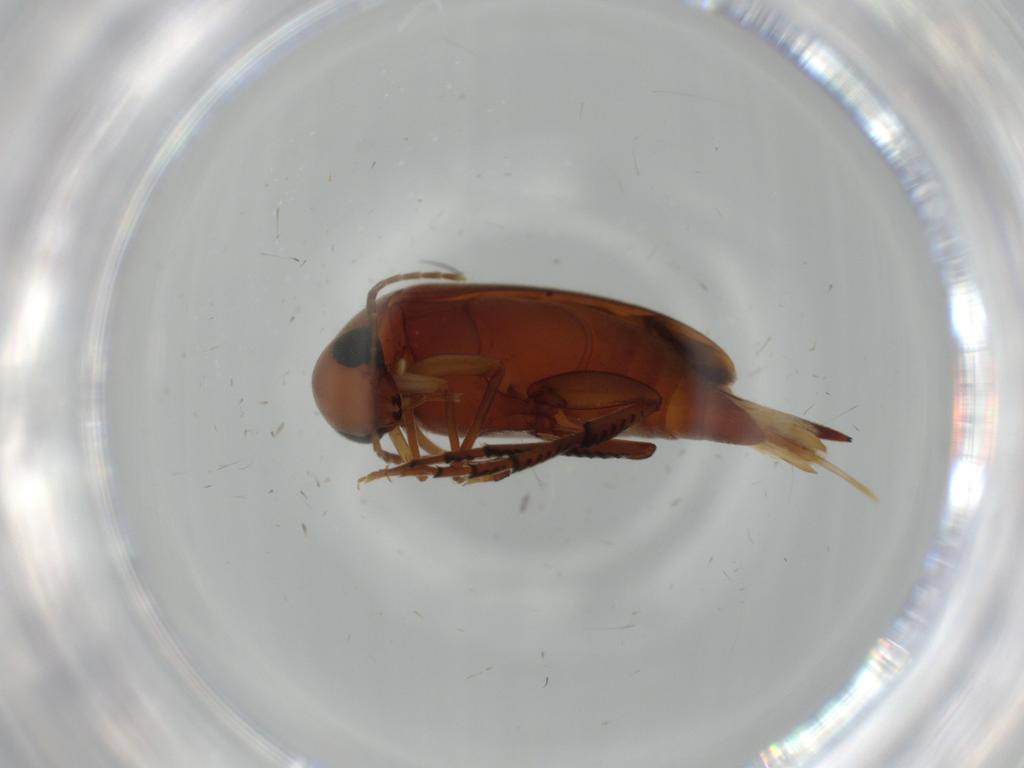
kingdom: Animalia
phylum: Arthropoda
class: Insecta
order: Coleoptera
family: Mordellidae
